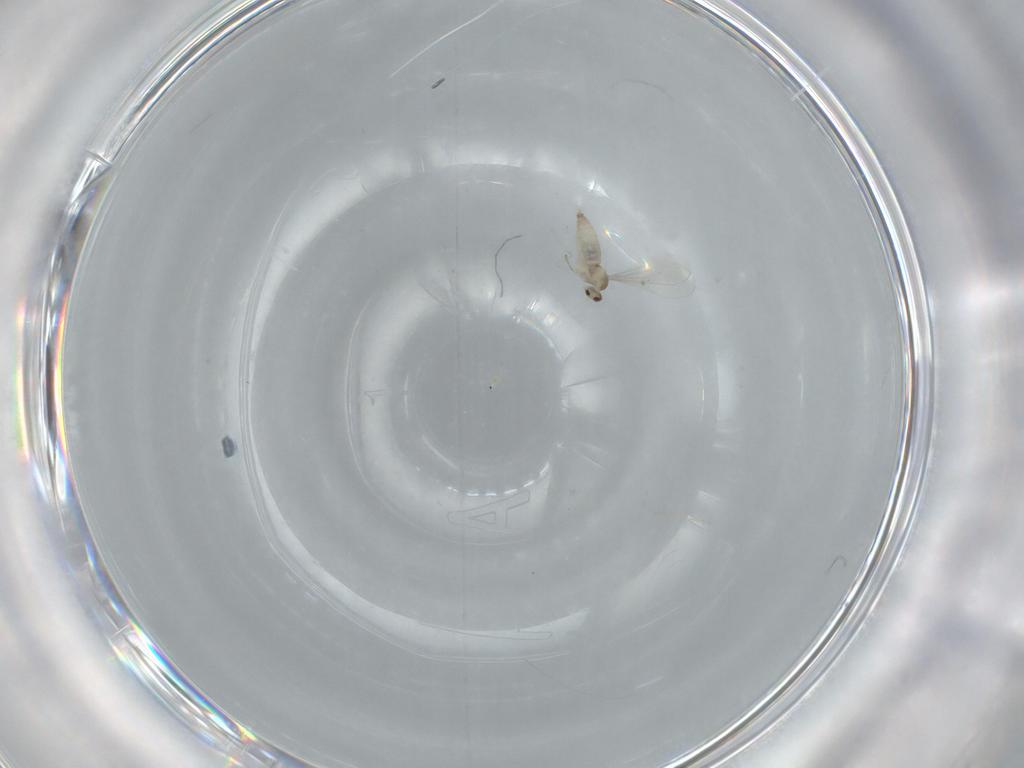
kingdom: Animalia
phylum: Arthropoda
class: Insecta
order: Diptera
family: Cecidomyiidae
